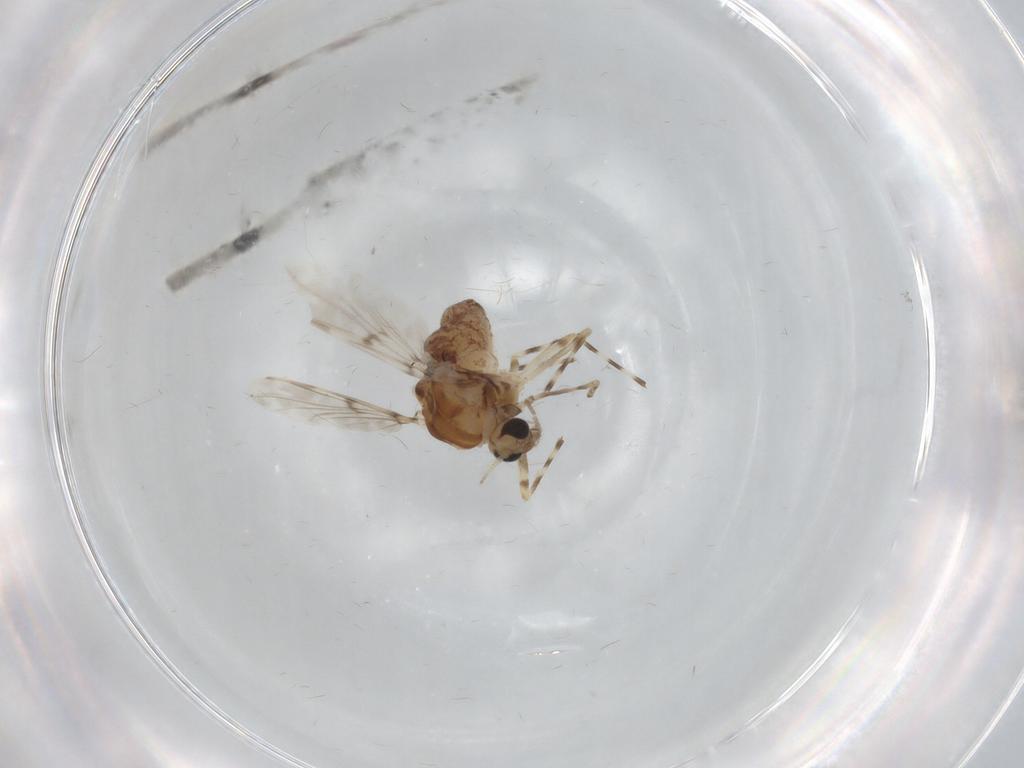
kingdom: Animalia
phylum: Arthropoda
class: Insecta
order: Diptera
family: Chironomidae
